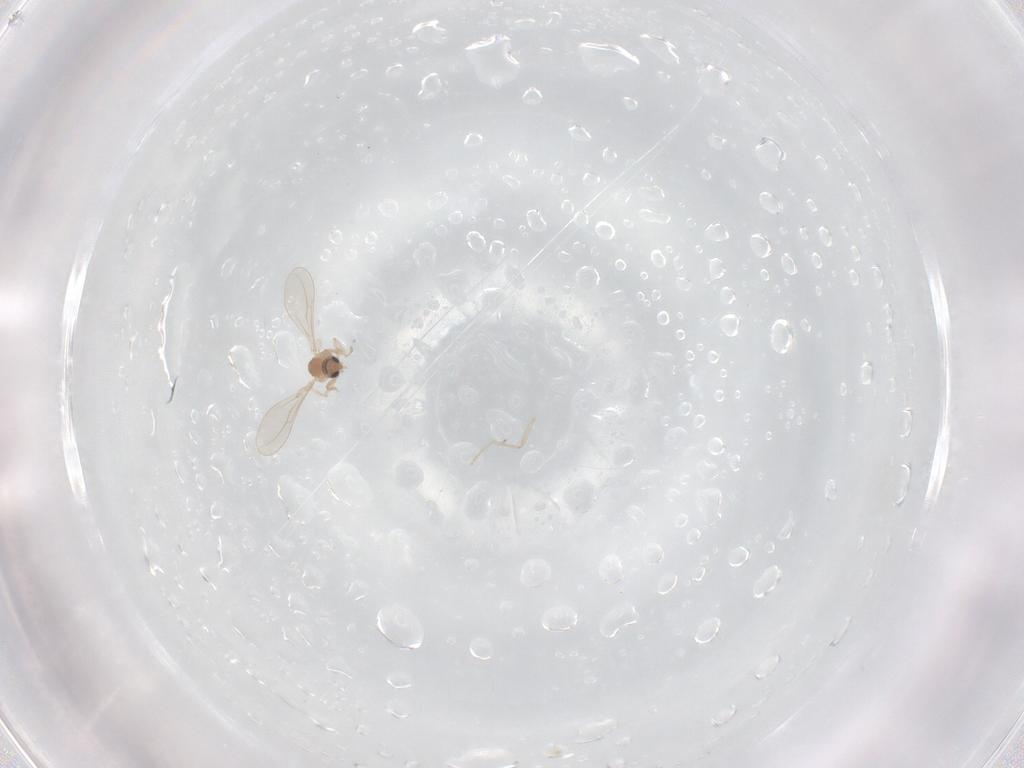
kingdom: Animalia
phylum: Arthropoda
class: Insecta
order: Diptera
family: Cecidomyiidae
